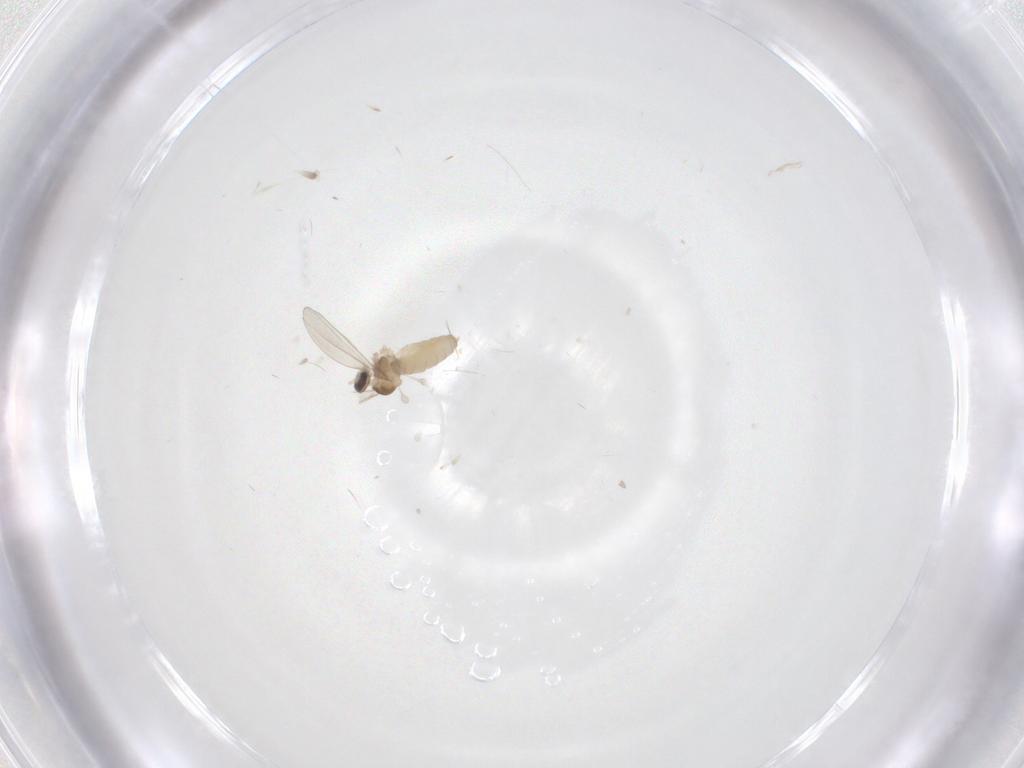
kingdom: Animalia
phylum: Arthropoda
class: Insecta
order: Diptera
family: Cecidomyiidae
